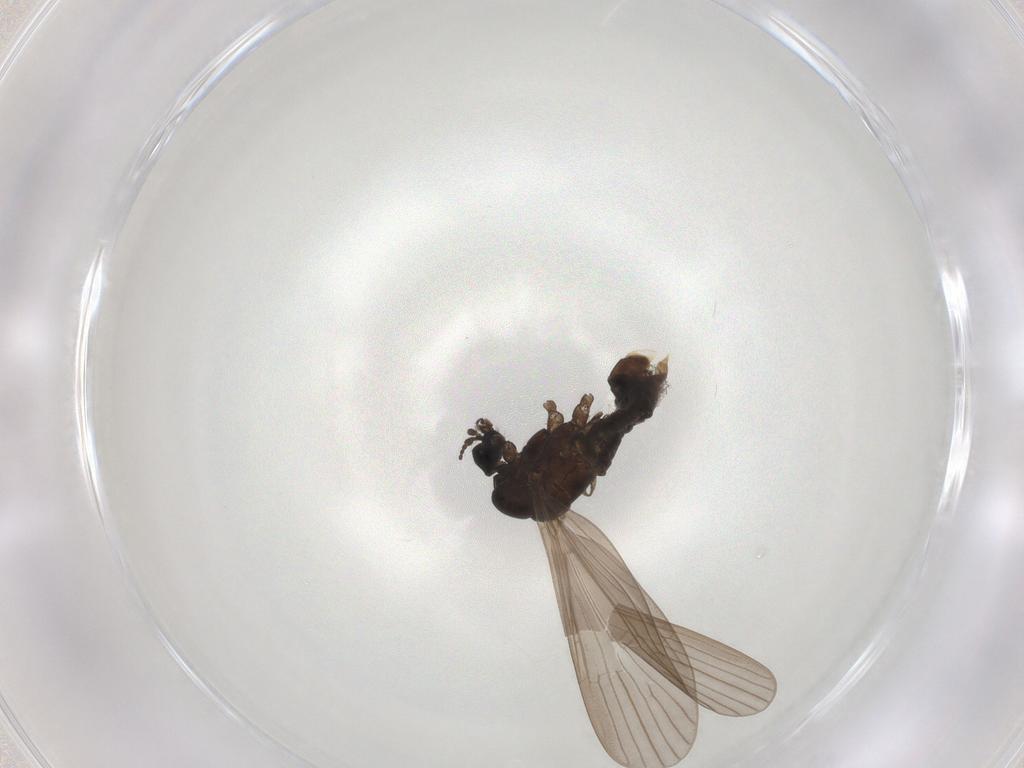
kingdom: Animalia
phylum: Arthropoda
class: Insecta
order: Diptera
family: Limoniidae
